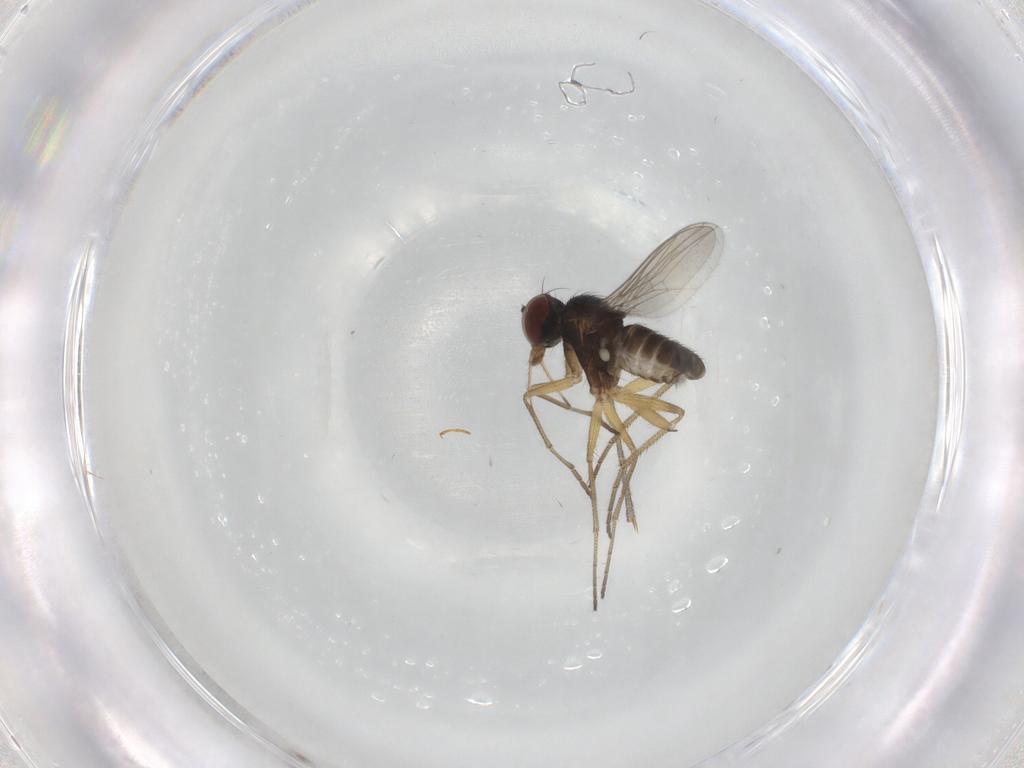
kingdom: Animalia
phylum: Arthropoda
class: Insecta
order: Diptera
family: Dolichopodidae
